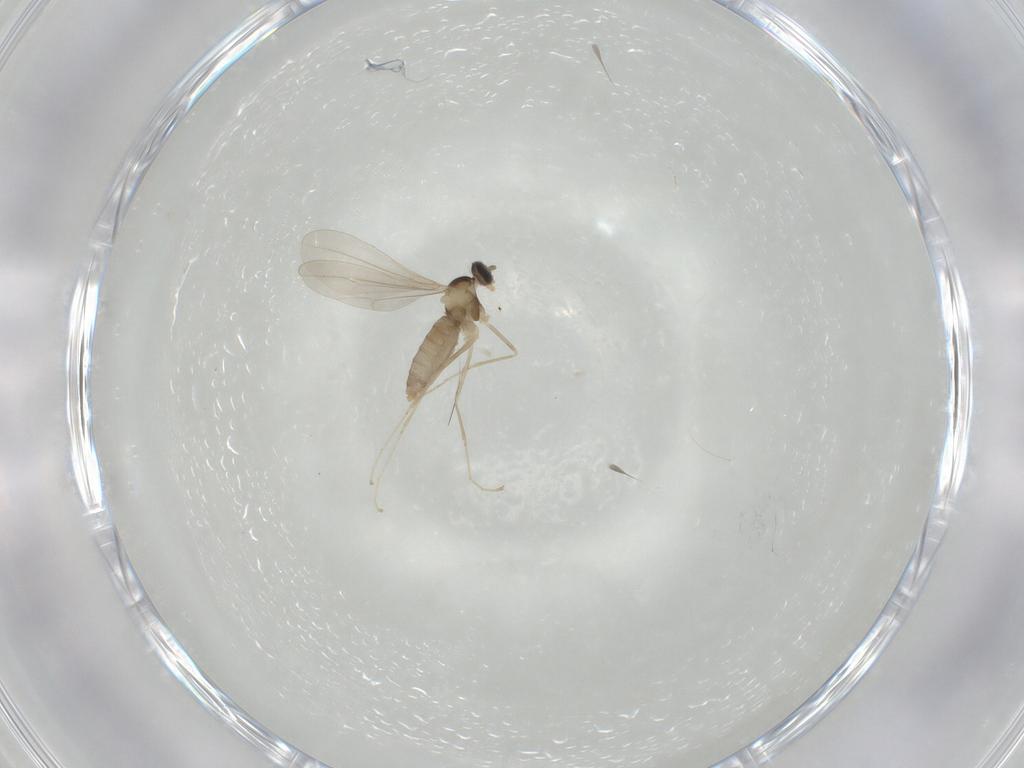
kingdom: Animalia
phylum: Arthropoda
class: Insecta
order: Diptera
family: Cecidomyiidae
